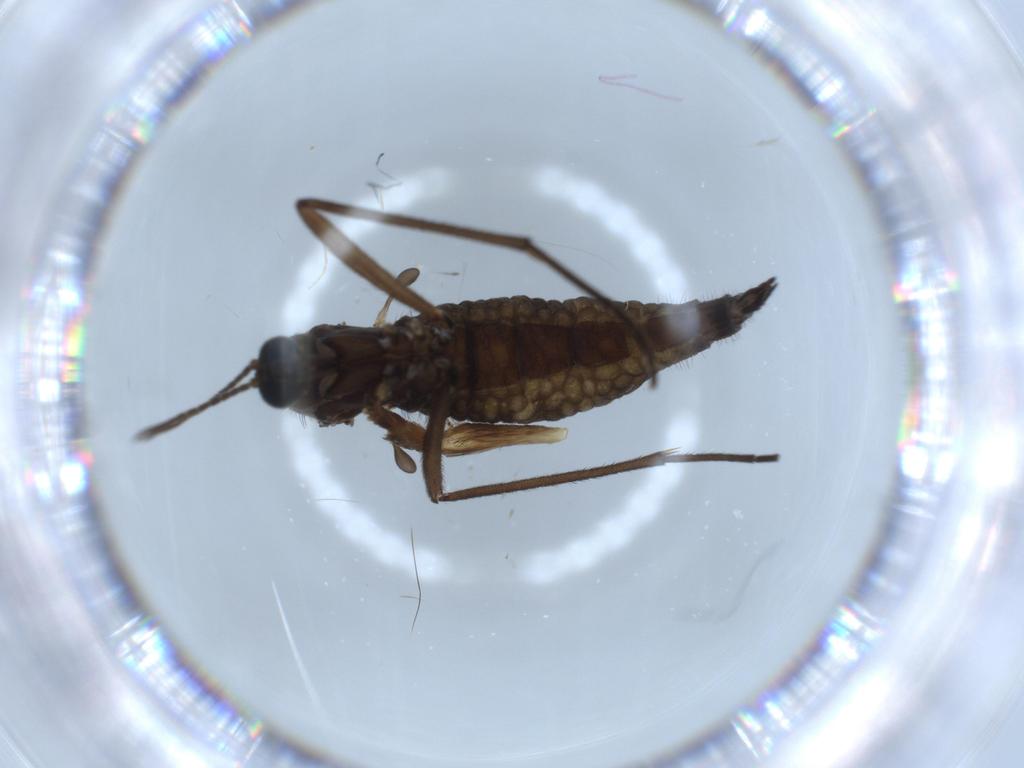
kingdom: Animalia
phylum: Arthropoda
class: Insecta
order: Diptera
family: Sciaridae
